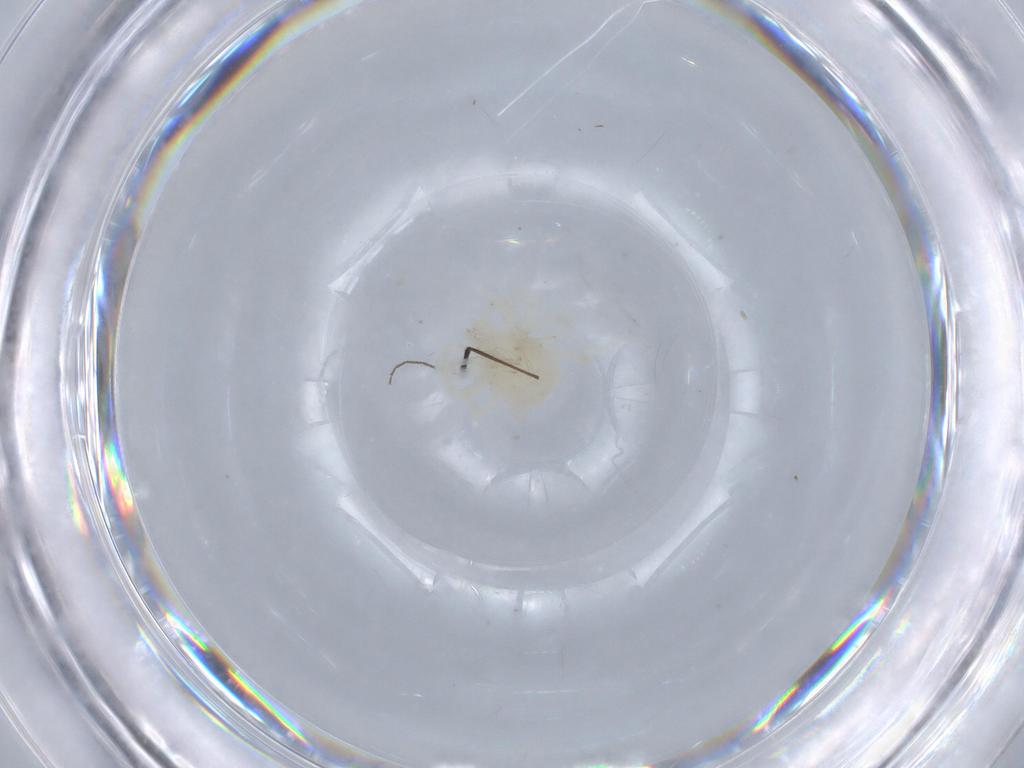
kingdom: Animalia
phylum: Arthropoda
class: Arachnida
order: Trombidiformes
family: Anystidae
